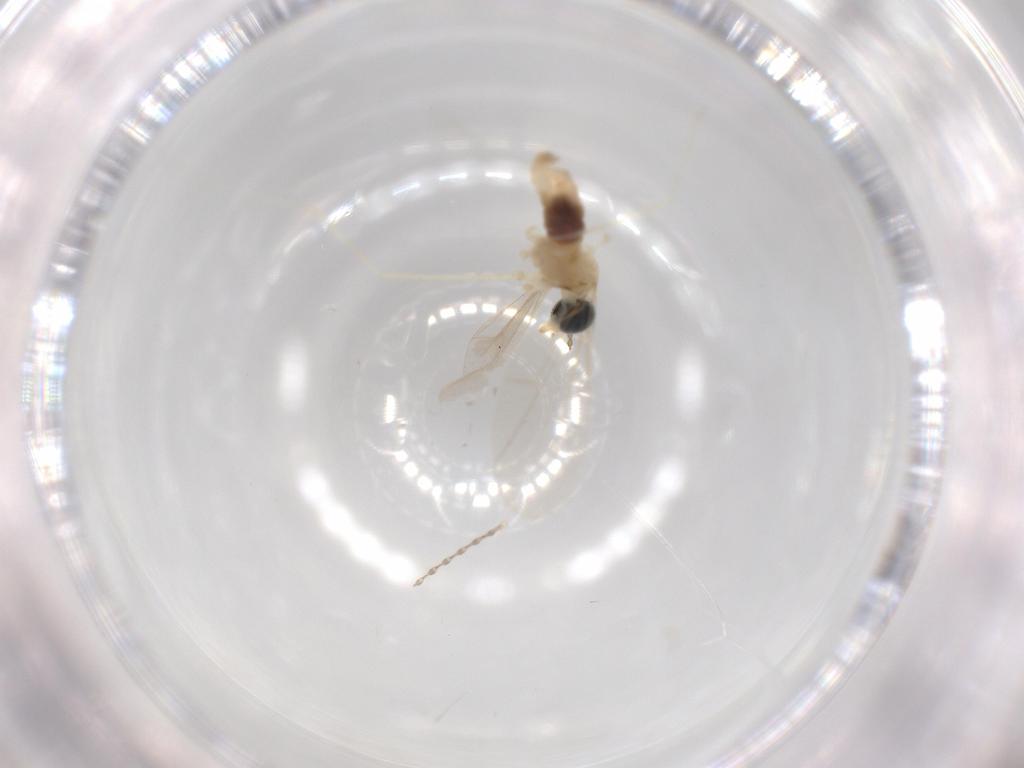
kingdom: Animalia
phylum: Arthropoda
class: Insecta
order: Diptera
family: Cecidomyiidae
